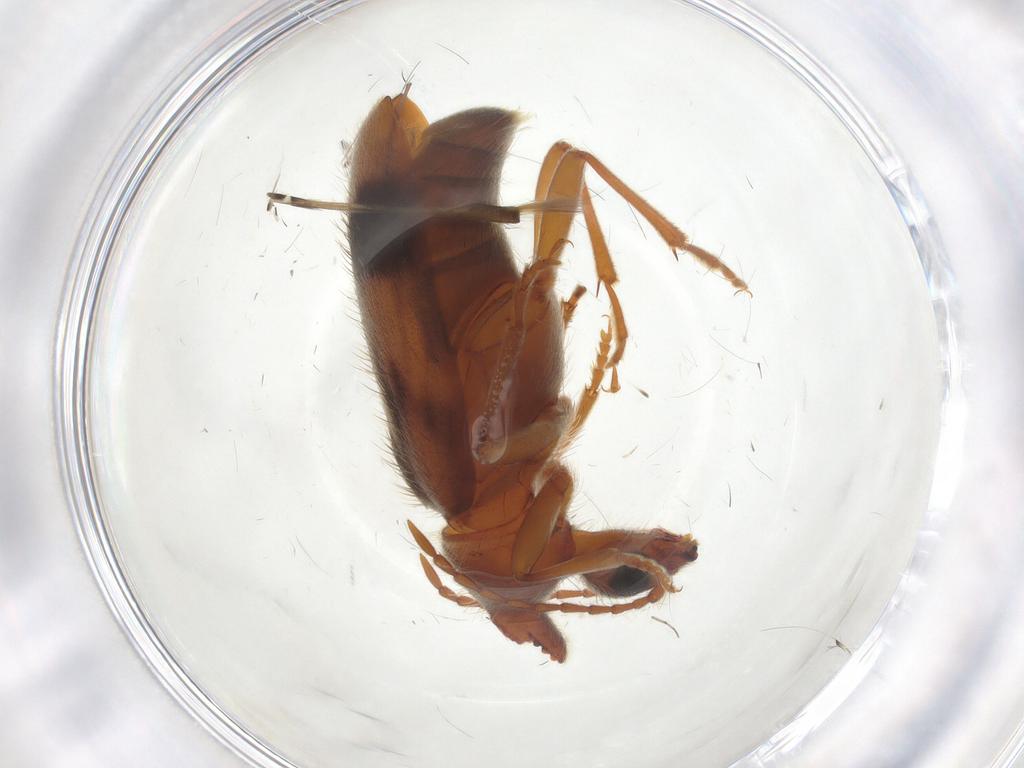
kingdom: Animalia
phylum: Arthropoda
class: Insecta
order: Coleoptera
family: Anthicidae
